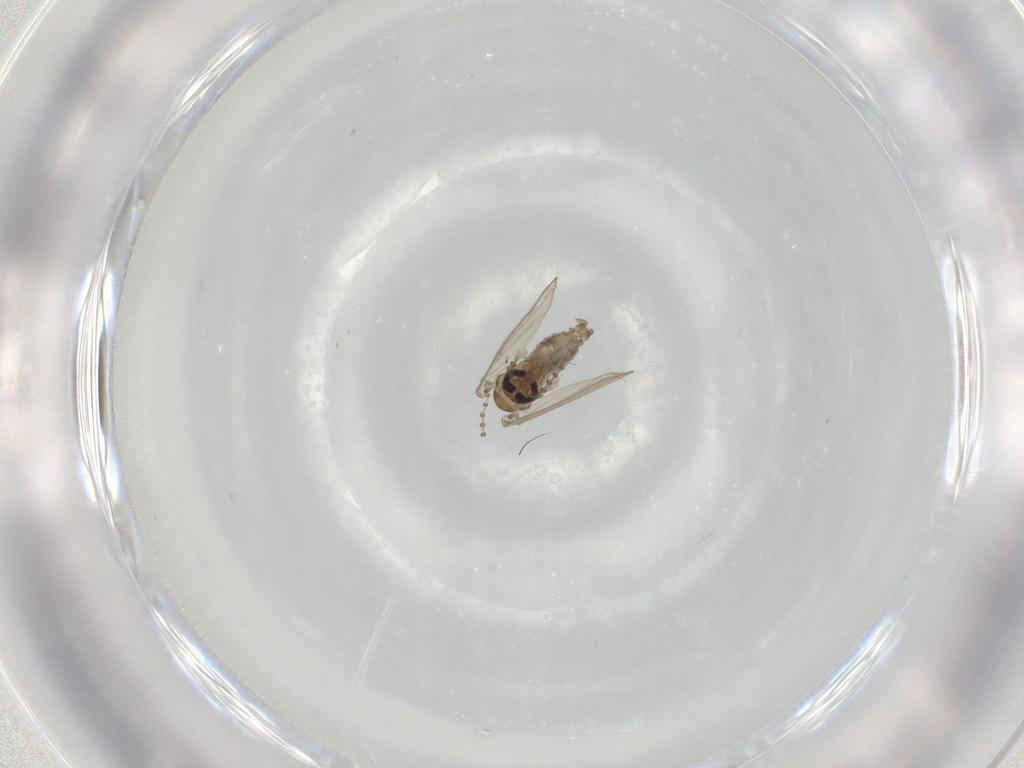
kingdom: Animalia
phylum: Arthropoda
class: Insecta
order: Diptera
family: Psychodidae
